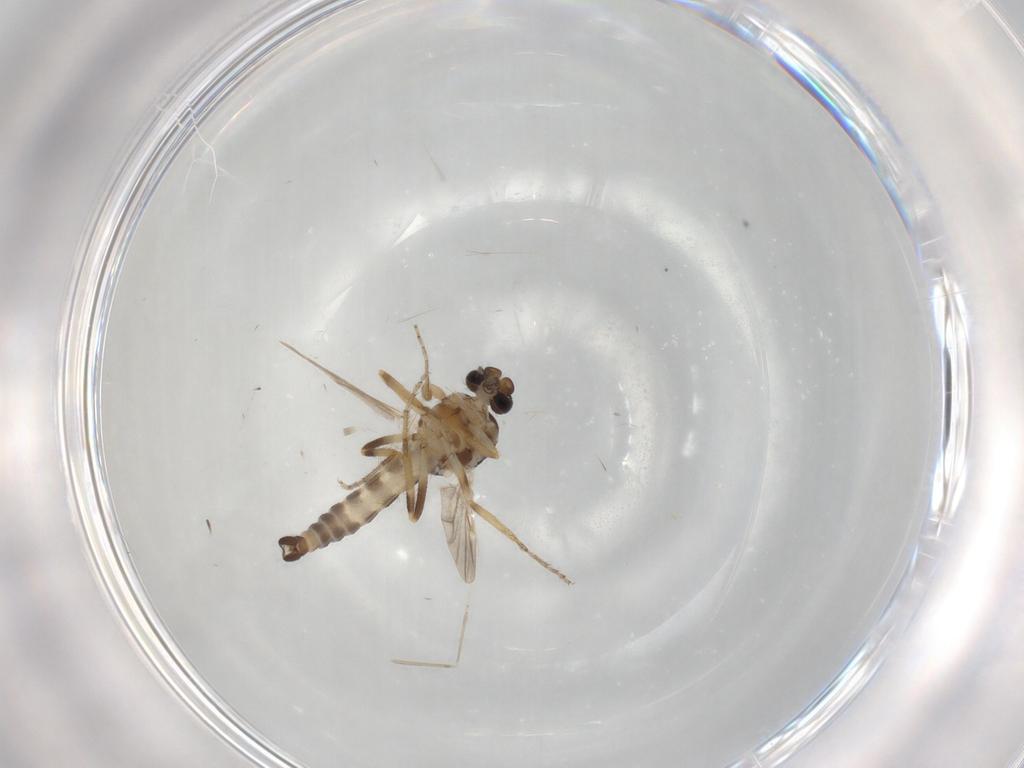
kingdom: Animalia
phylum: Arthropoda
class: Insecta
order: Diptera
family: Ceratopogonidae
